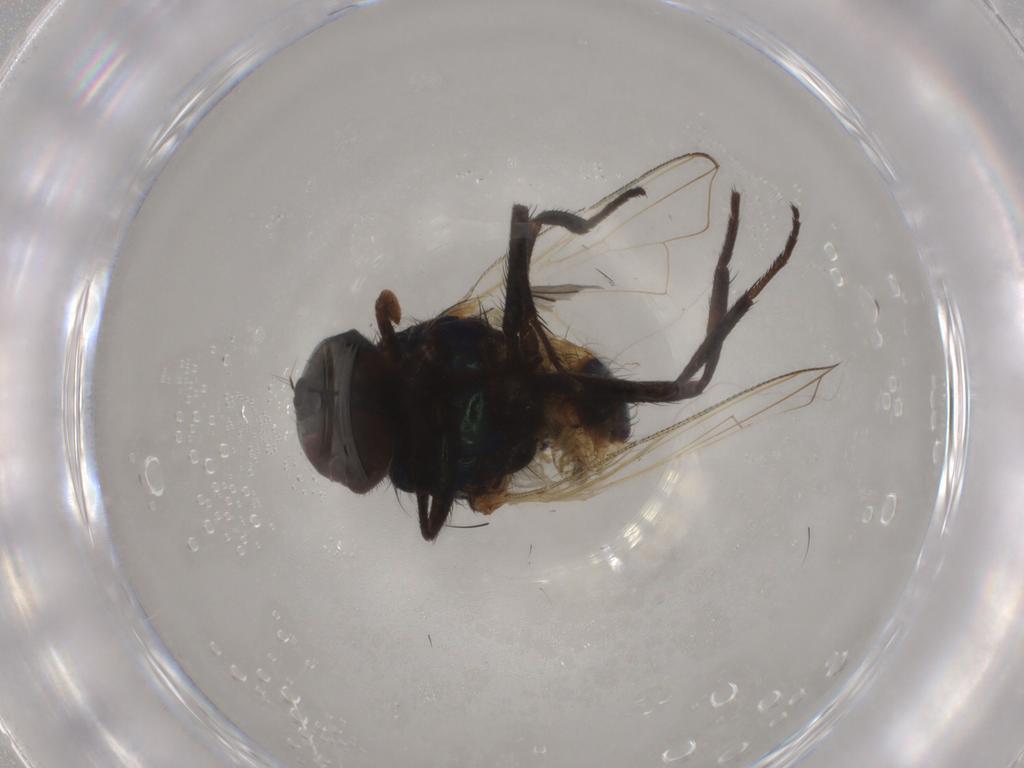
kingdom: Animalia
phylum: Arthropoda
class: Insecta
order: Diptera
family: Muscidae
